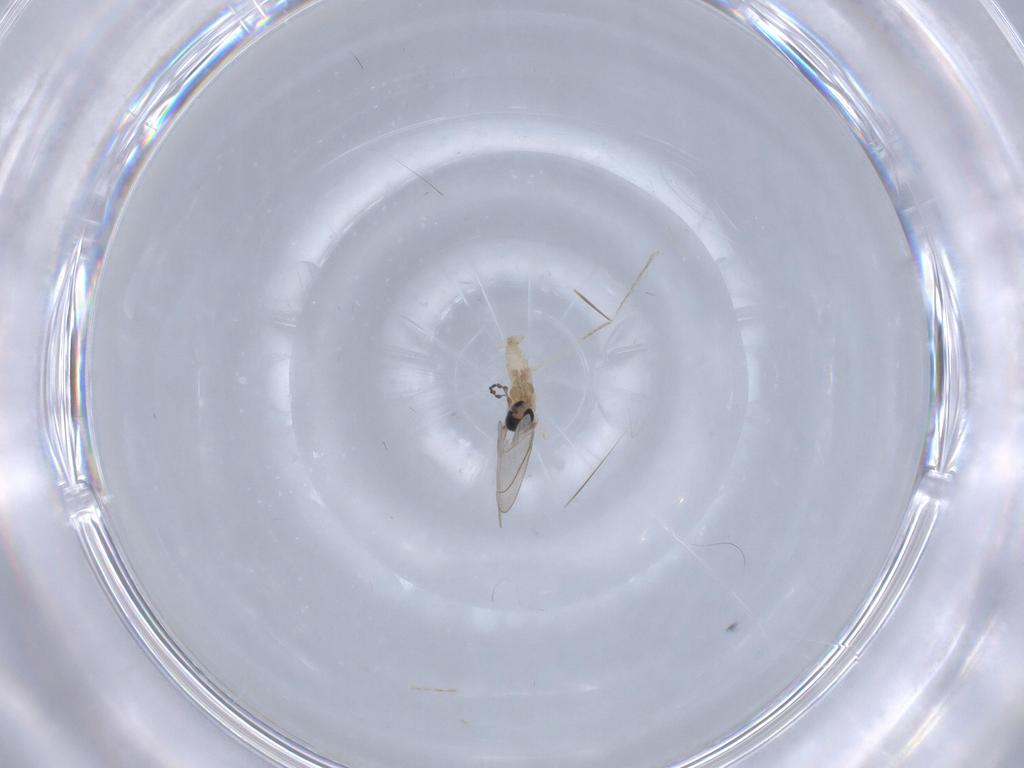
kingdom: Animalia
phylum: Arthropoda
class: Insecta
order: Diptera
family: Cecidomyiidae
